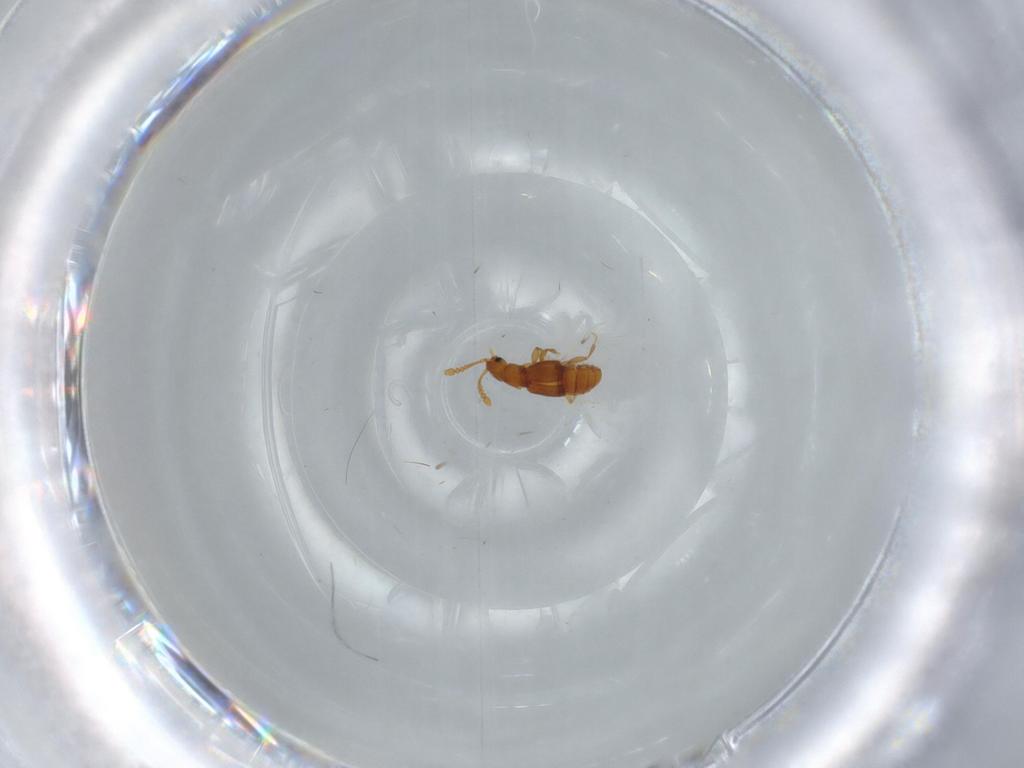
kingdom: Animalia
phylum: Arthropoda
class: Insecta
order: Coleoptera
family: Staphylinidae
